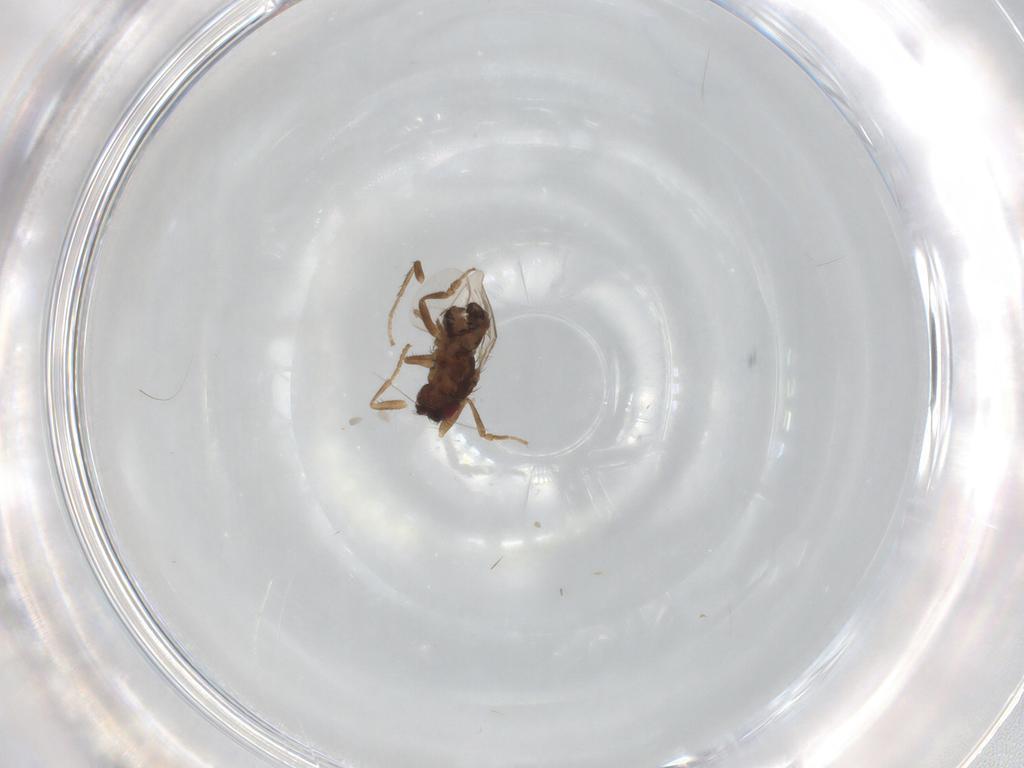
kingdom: Animalia
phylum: Arthropoda
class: Insecta
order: Diptera
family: Sphaeroceridae
